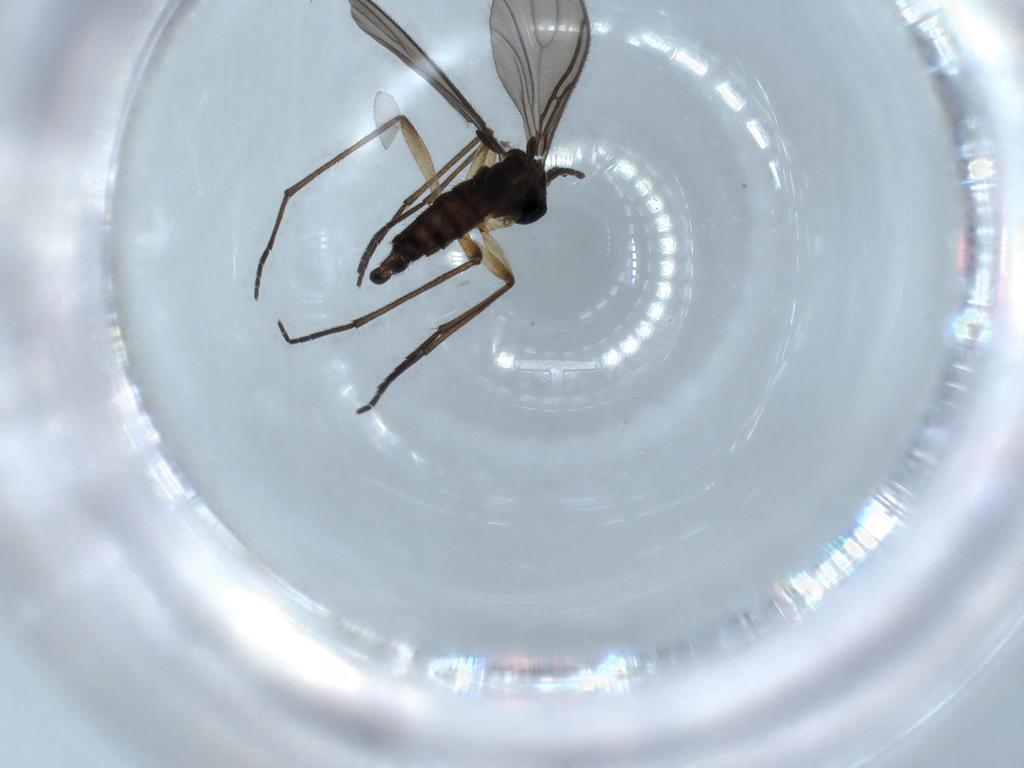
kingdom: Animalia
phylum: Arthropoda
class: Insecta
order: Diptera
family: Sciaridae
